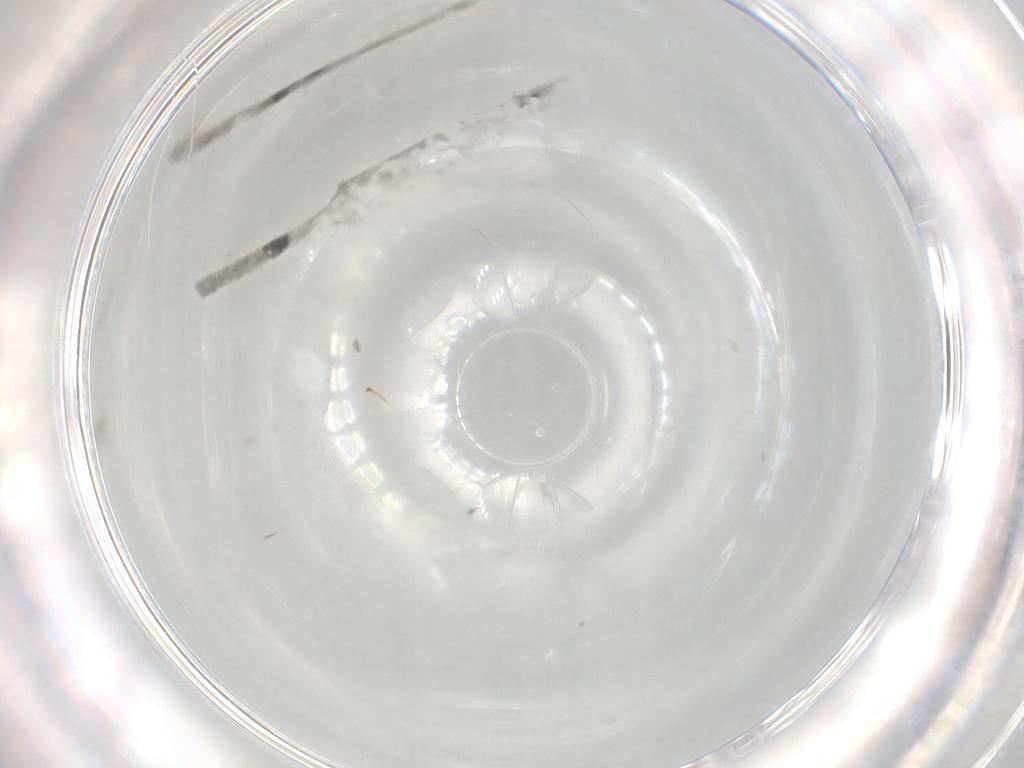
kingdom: Animalia
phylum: Arthropoda
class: Insecta
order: Hymenoptera
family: Braconidae
